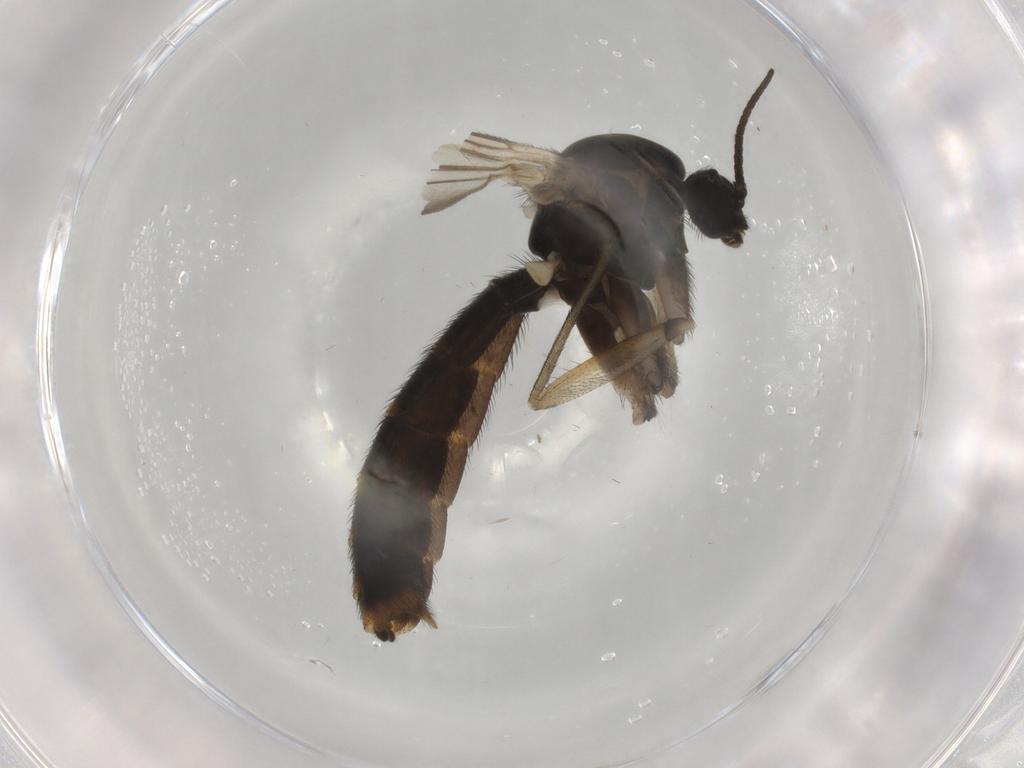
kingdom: Animalia
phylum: Arthropoda
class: Insecta
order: Diptera
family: Keroplatidae
